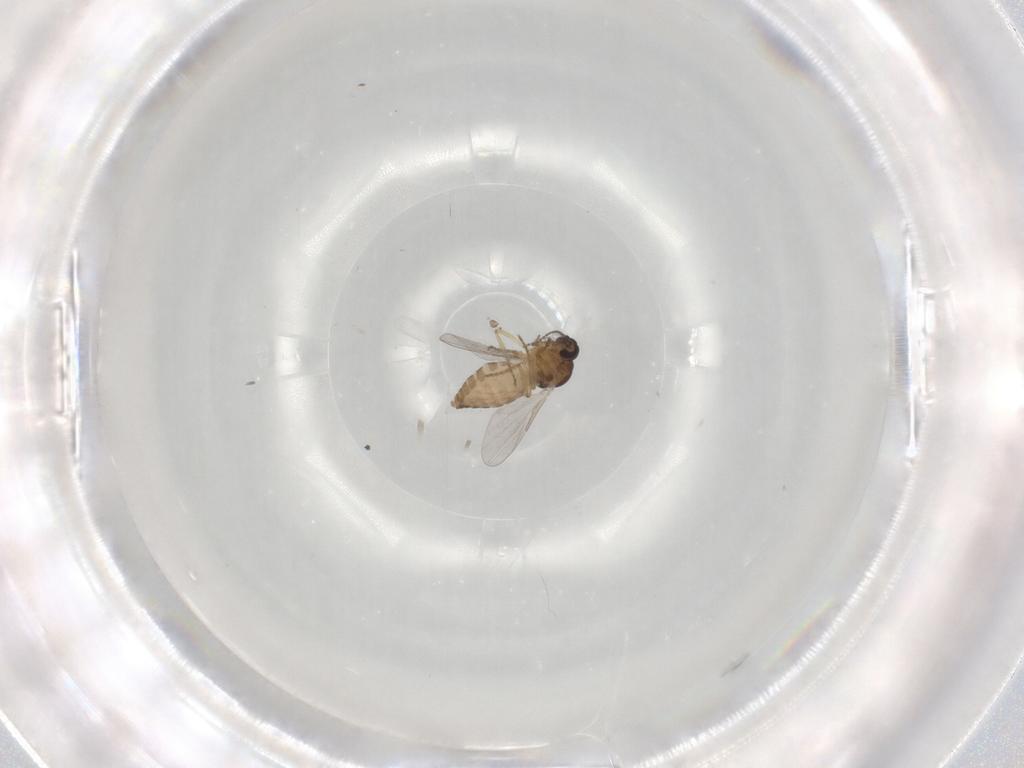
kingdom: Animalia
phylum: Arthropoda
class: Insecta
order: Diptera
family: Ceratopogonidae
